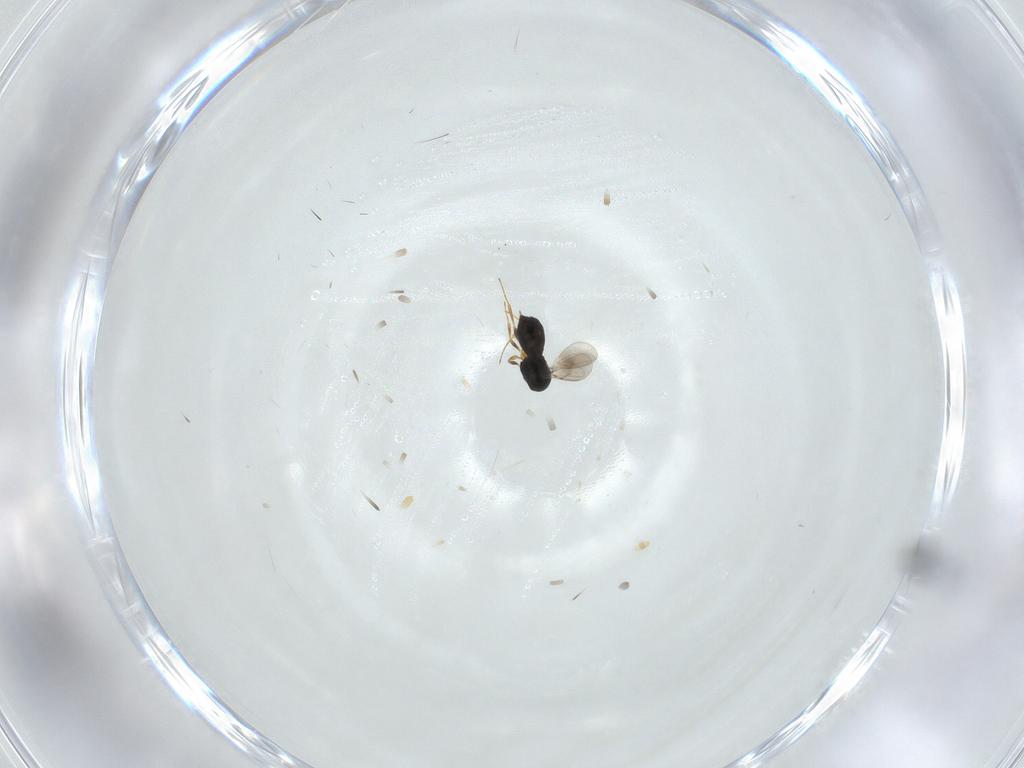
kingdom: Animalia
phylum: Arthropoda
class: Insecta
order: Hymenoptera
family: Scelionidae
